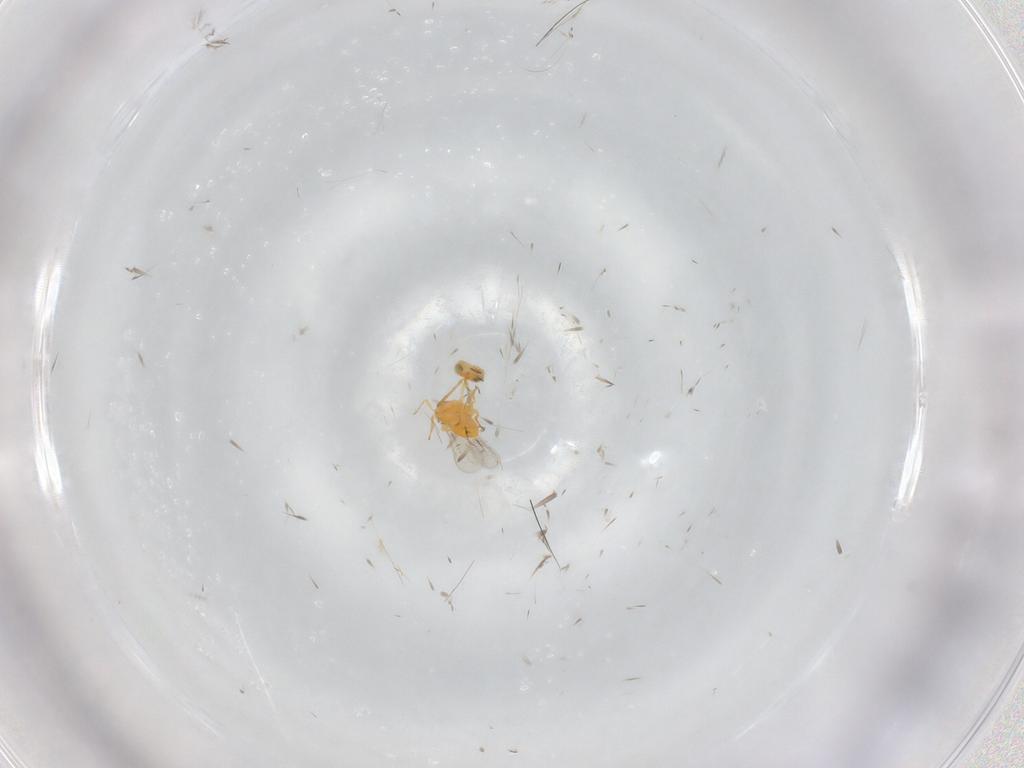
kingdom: Animalia
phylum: Arthropoda
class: Insecta
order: Hymenoptera
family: Aphelinidae
